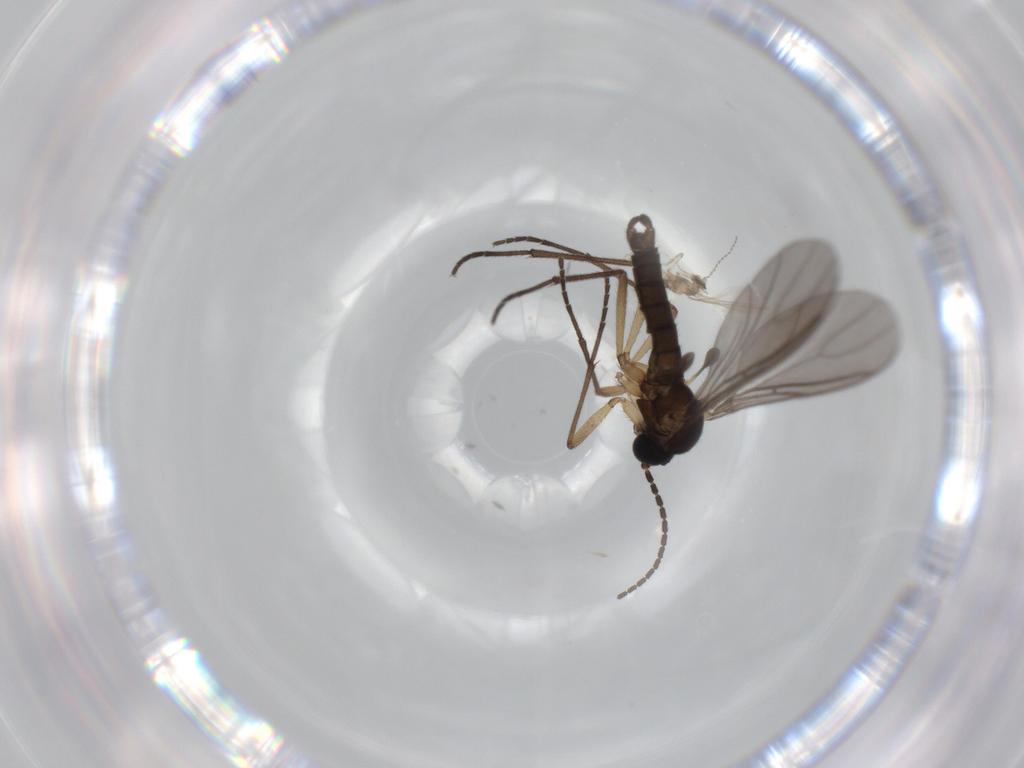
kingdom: Animalia
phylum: Arthropoda
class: Insecta
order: Diptera
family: Cecidomyiidae
